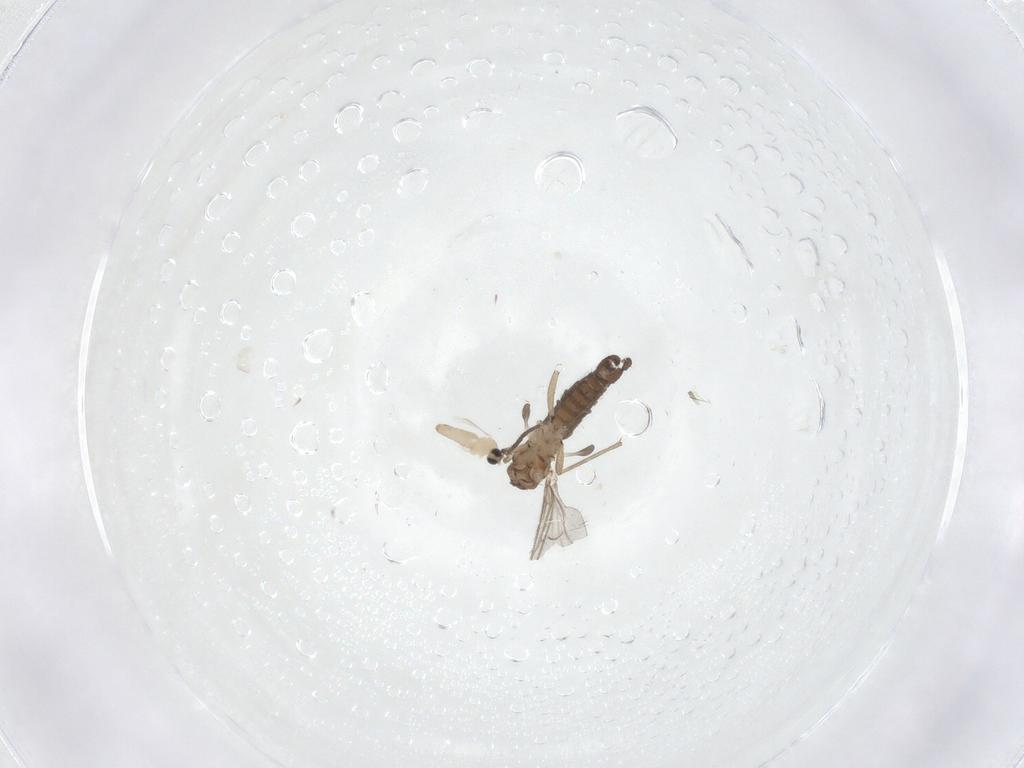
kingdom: Animalia
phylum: Arthropoda
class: Insecta
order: Diptera
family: Sciaridae
